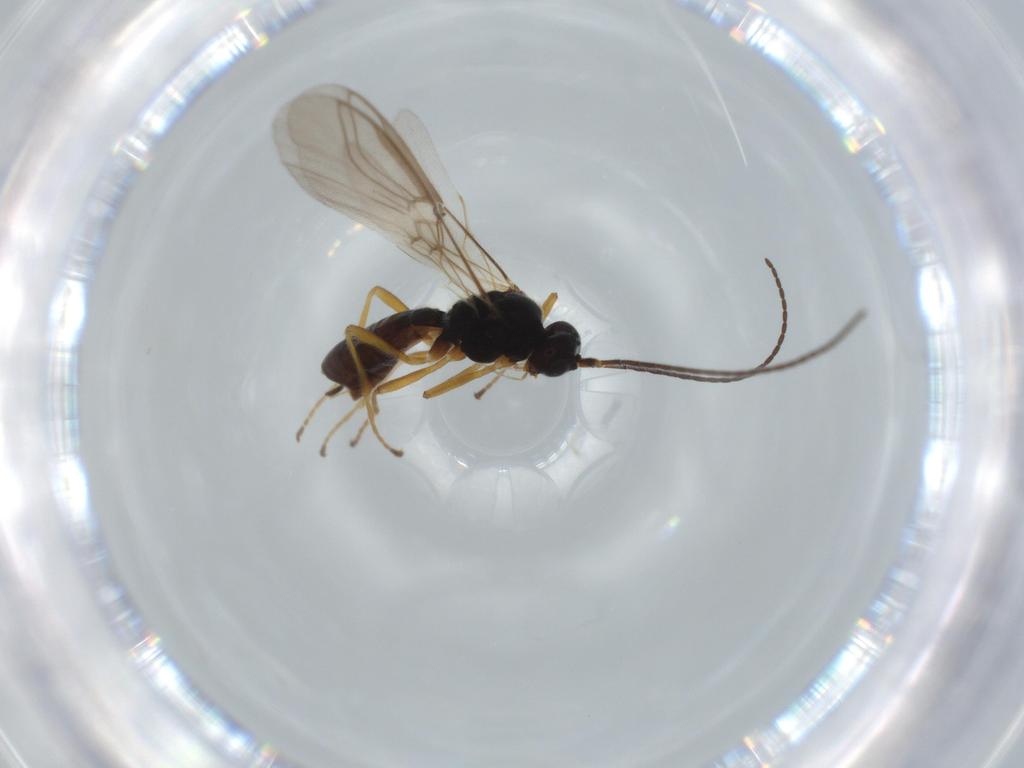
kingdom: Animalia
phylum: Arthropoda
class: Insecta
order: Hymenoptera
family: Braconidae
